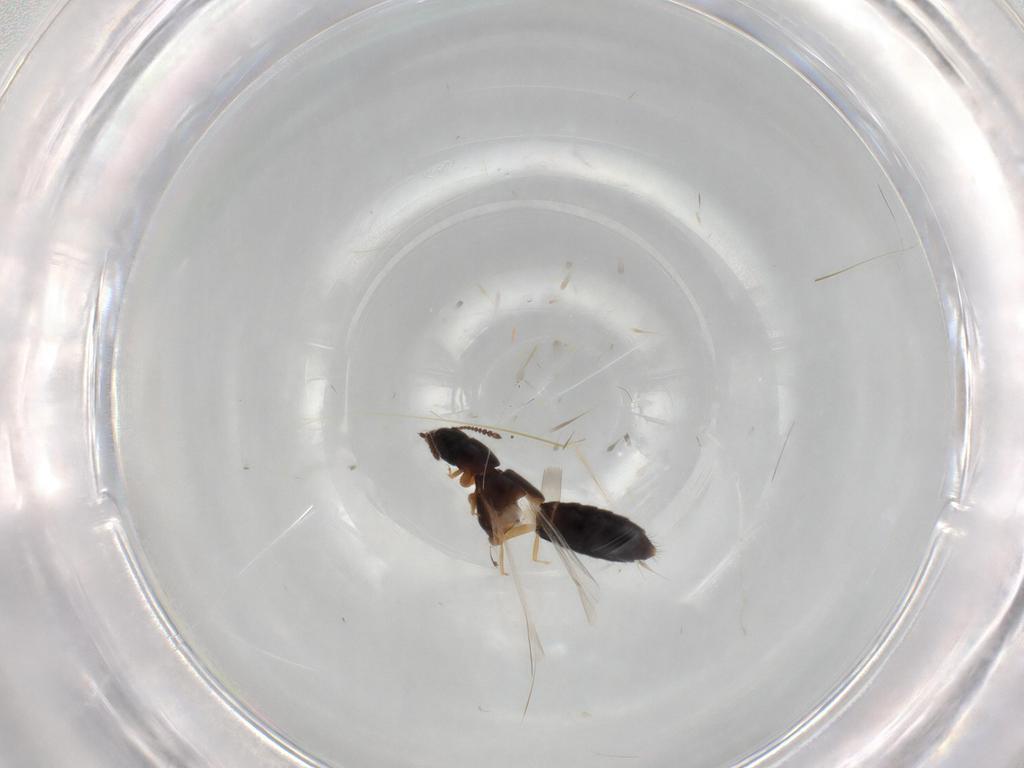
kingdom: Animalia
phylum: Arthropoda
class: Insecta
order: Coleoptera
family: Staphylinidae
